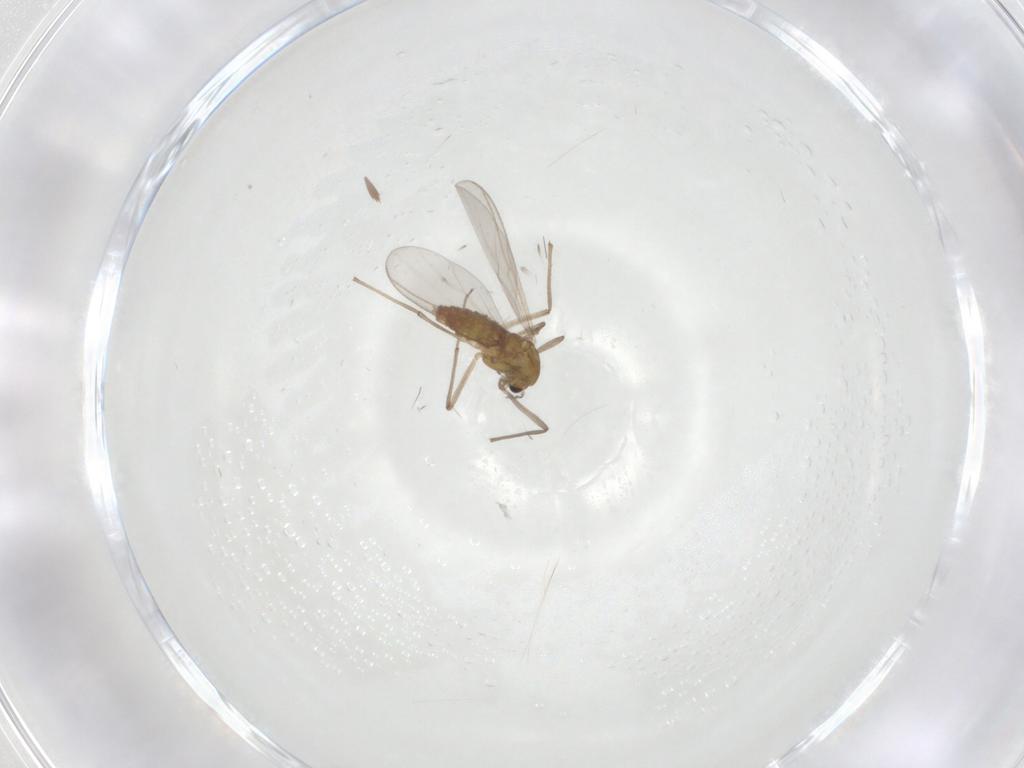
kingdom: Animalia
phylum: Arthropoda
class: Insecta
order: Diptera
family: Chironomidae
